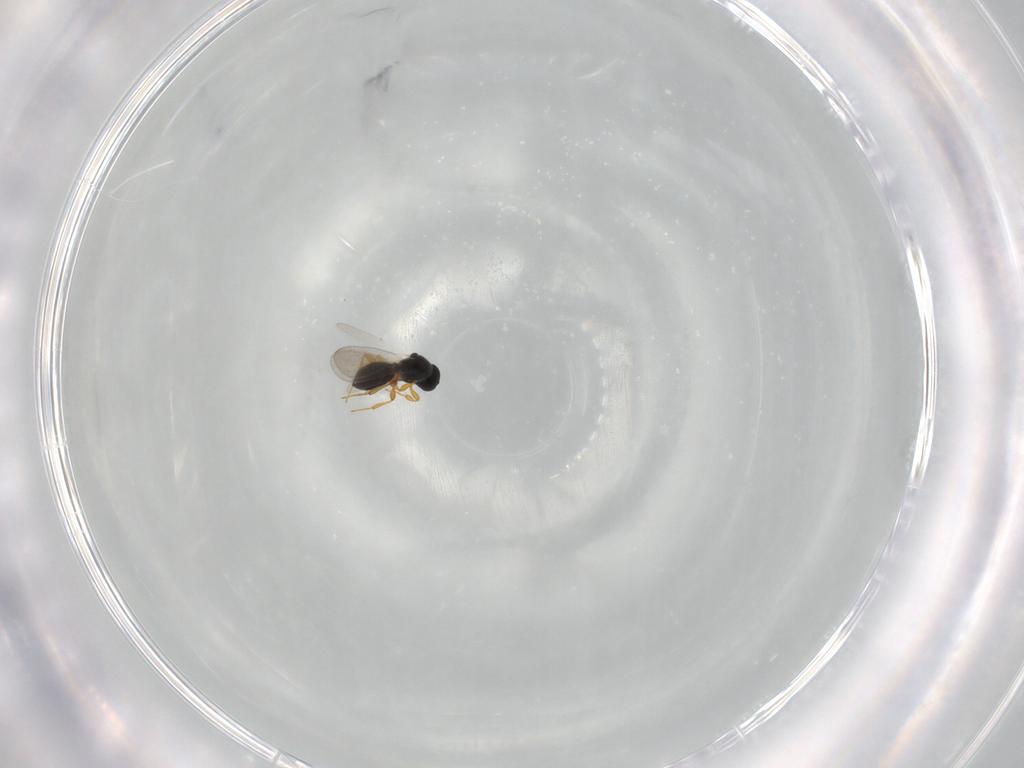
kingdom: Animalia
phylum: Arthropoda
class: Insecta
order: Hymenoptera
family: Platygastridae
